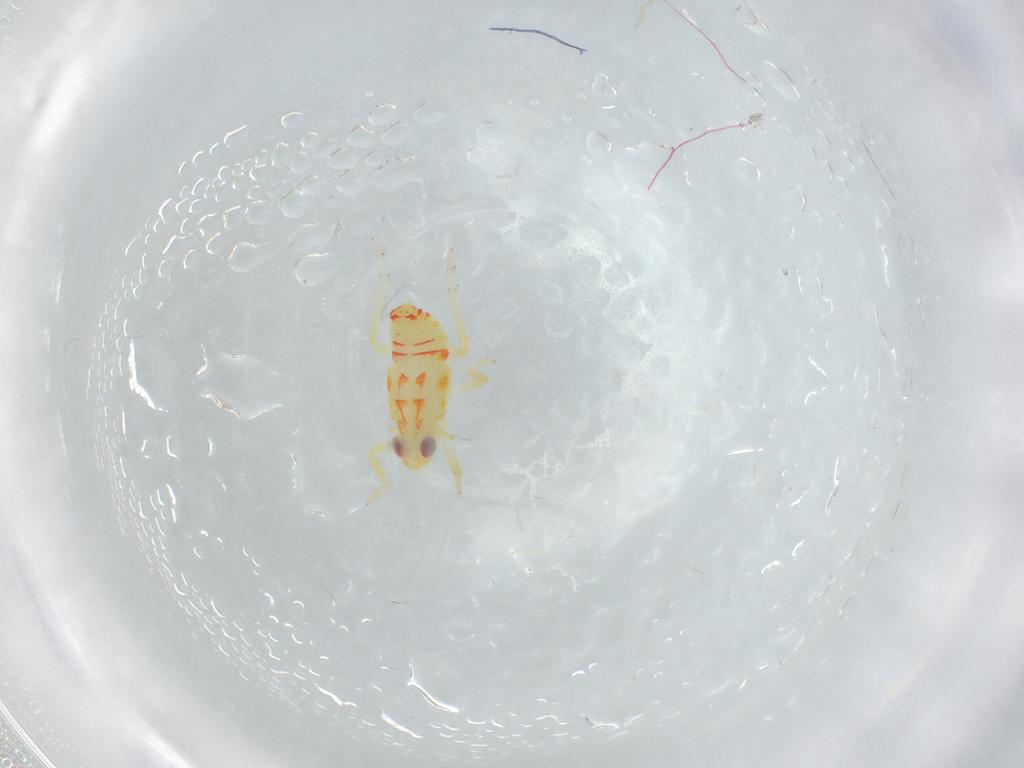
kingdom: Animalia
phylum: Arthropoda
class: Insecta
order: Hemiptera
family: Tropiduchidae
